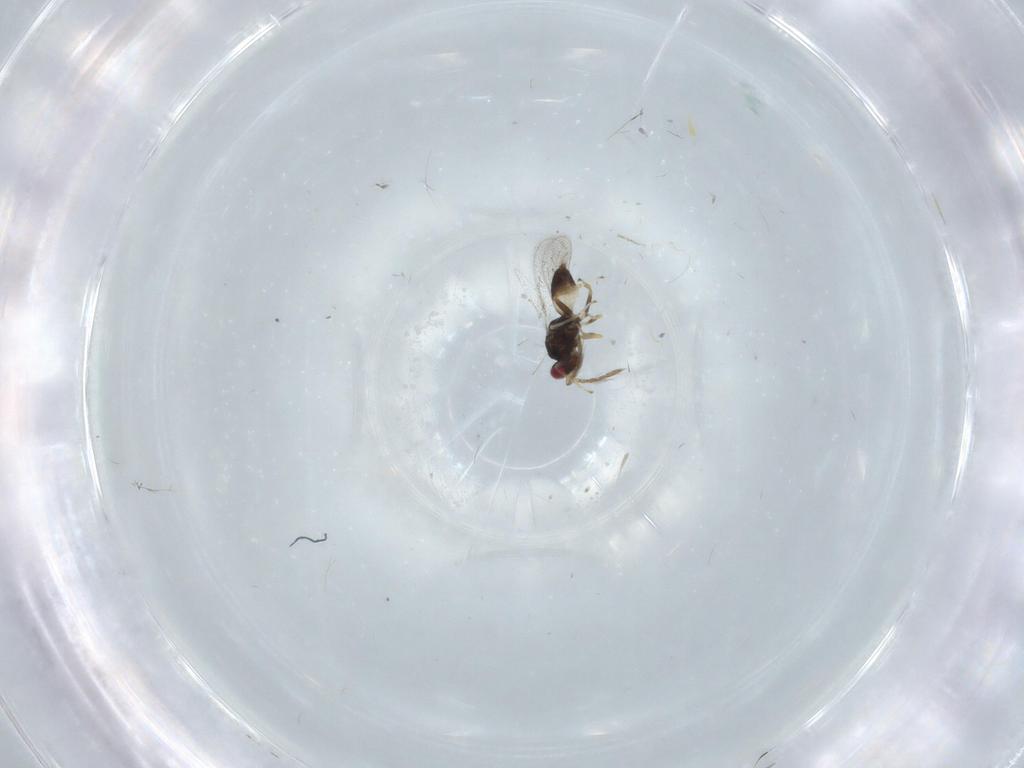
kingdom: Animalia
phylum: Arthropoda
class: Insecta
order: Hymenoptera
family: Eulophidae
